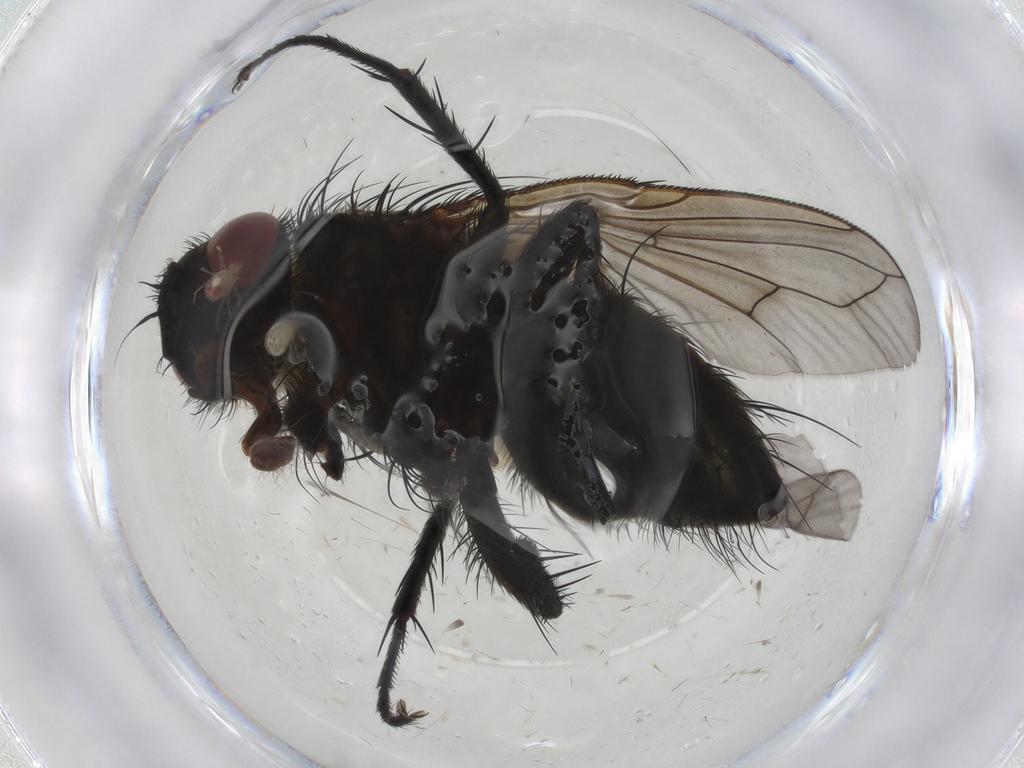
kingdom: Animalia
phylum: Arthropoda
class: Insecta
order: Diptera
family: Tachinidae
